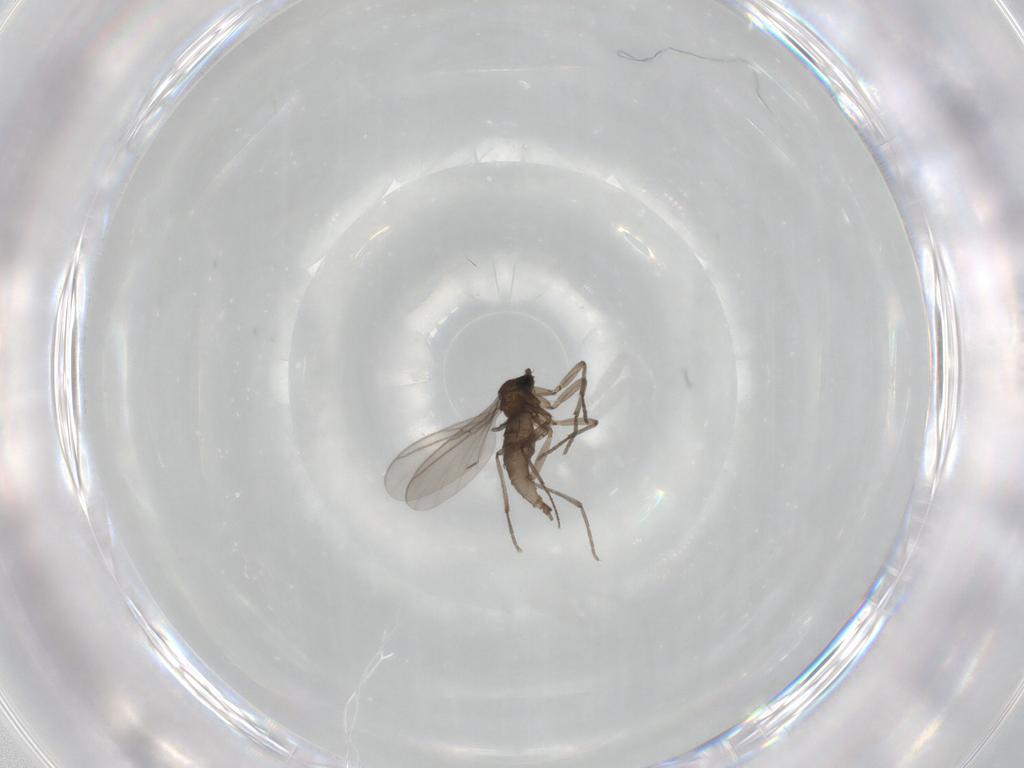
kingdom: Animalia
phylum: Arthropoda
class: Insecta
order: Diptera
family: Sciaridae
